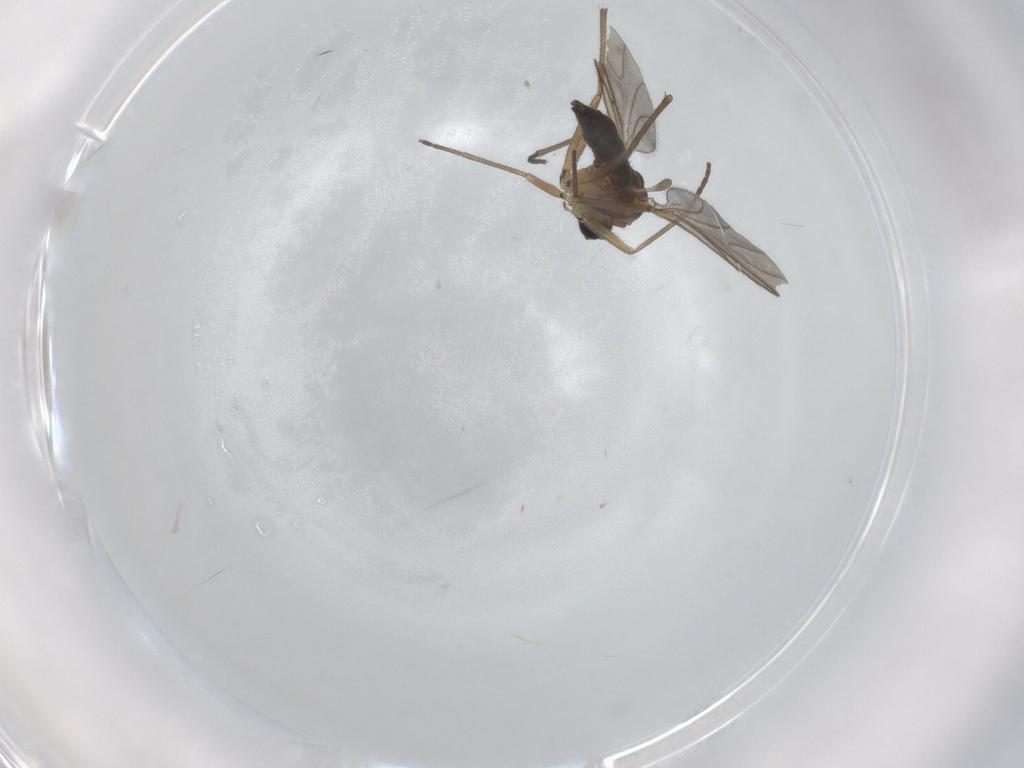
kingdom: Animalia
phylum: Arthropoda
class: Insecta
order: Diptera
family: Sciaridae
